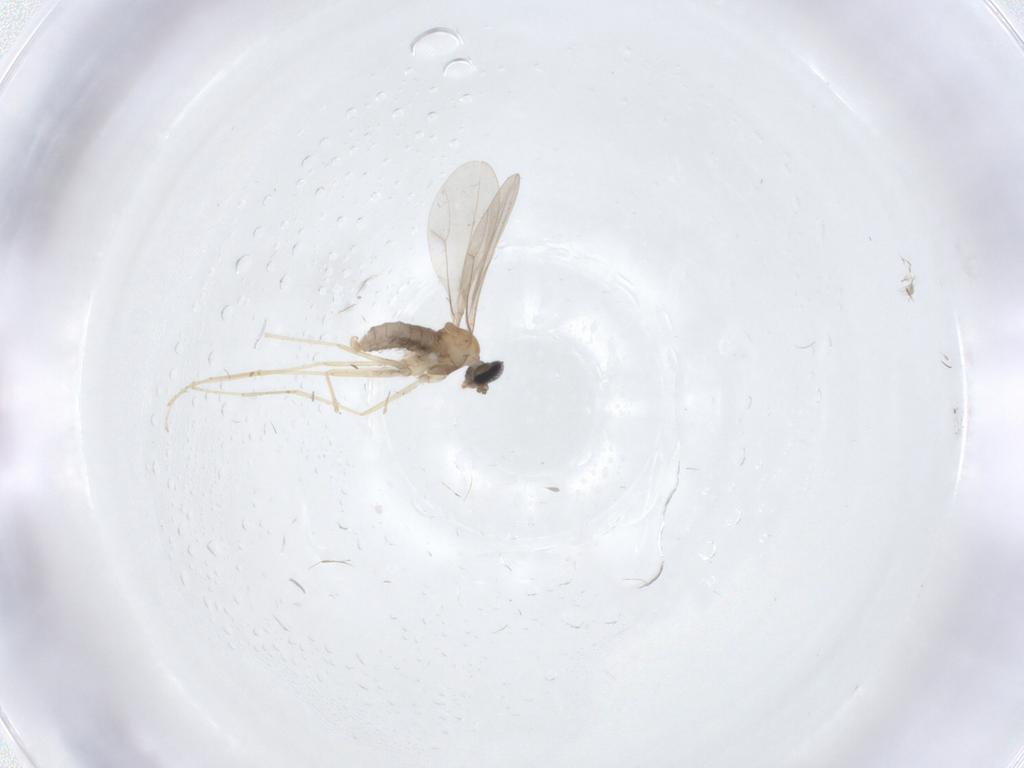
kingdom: Animalia
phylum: Arthropoda
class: Insecta
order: Diptera
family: Cecidomyiidae
